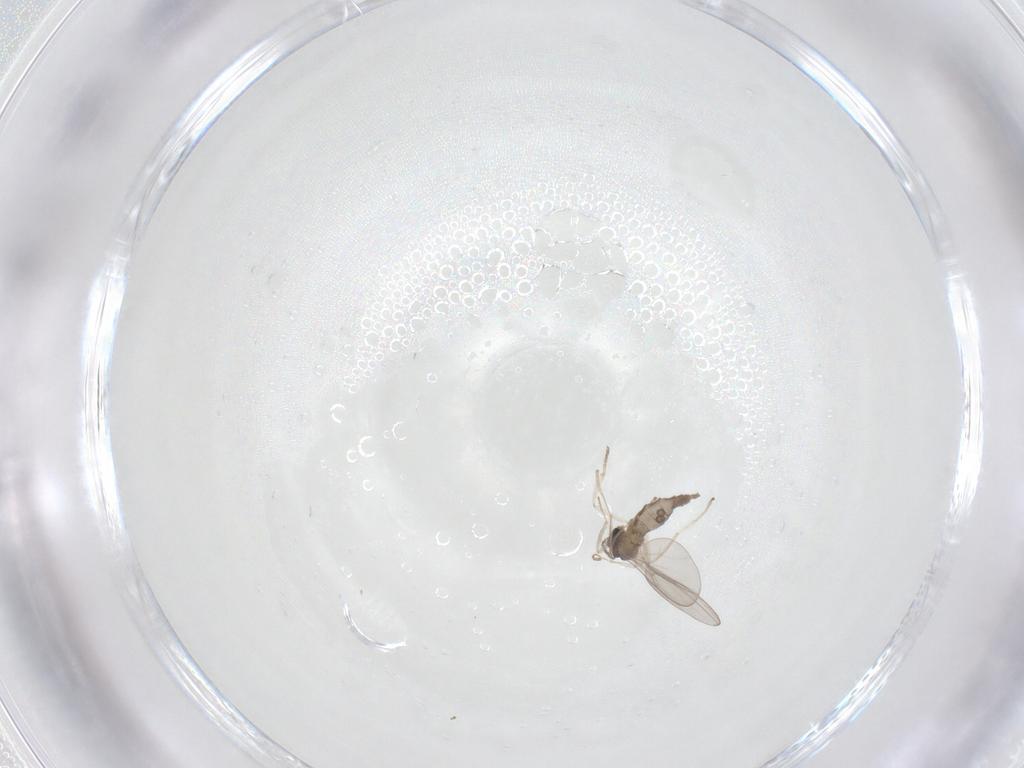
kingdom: Animalia
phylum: Arthropoda
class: Insecta
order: Diptera
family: Cecidomyiidae
